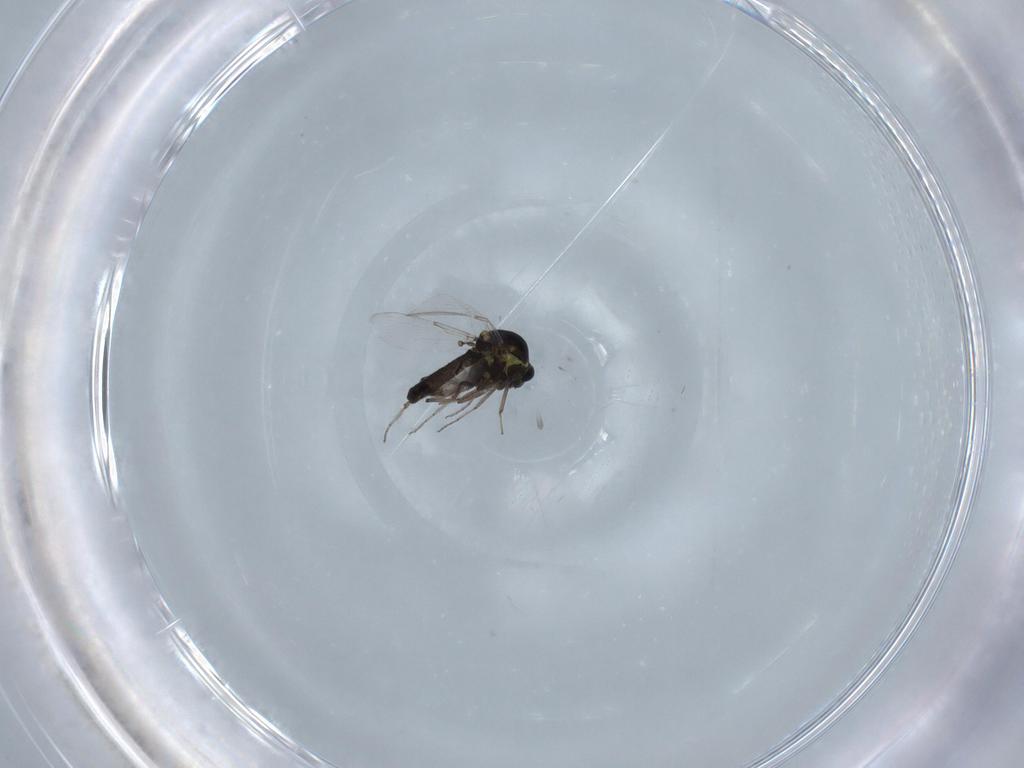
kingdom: Animalia
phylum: Arthropoda
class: Insecta
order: Diptera
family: Ceratopogonidae
